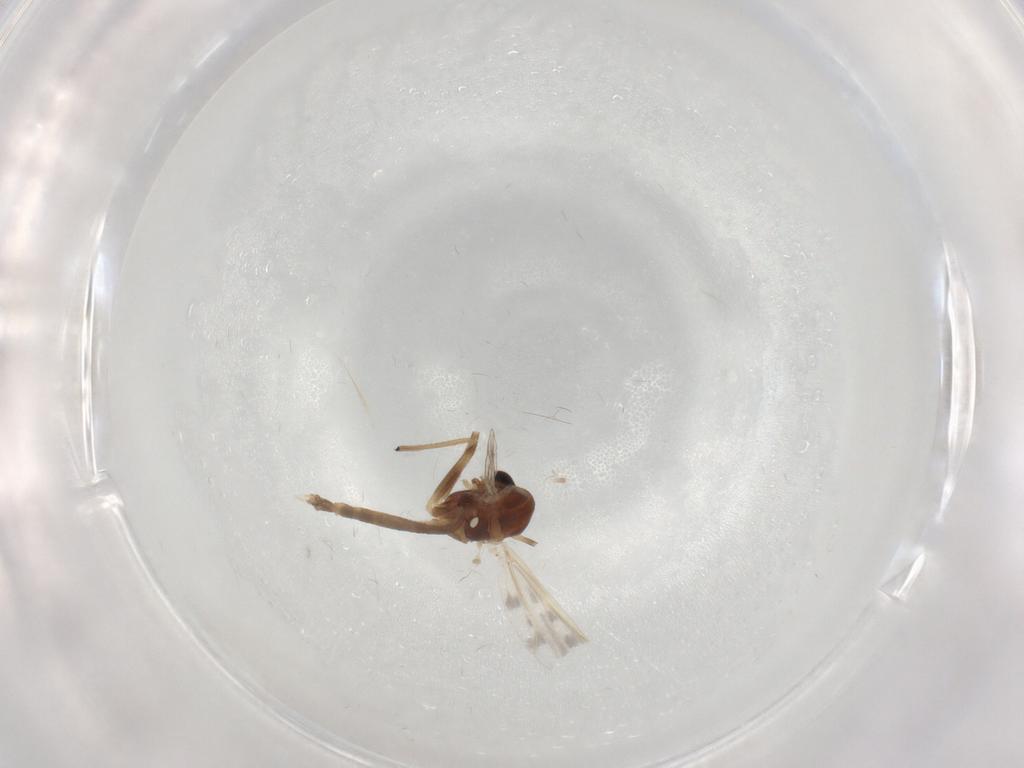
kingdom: Animalia
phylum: Arthropoda
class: Insecta
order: Diptera
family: Chironomidae
